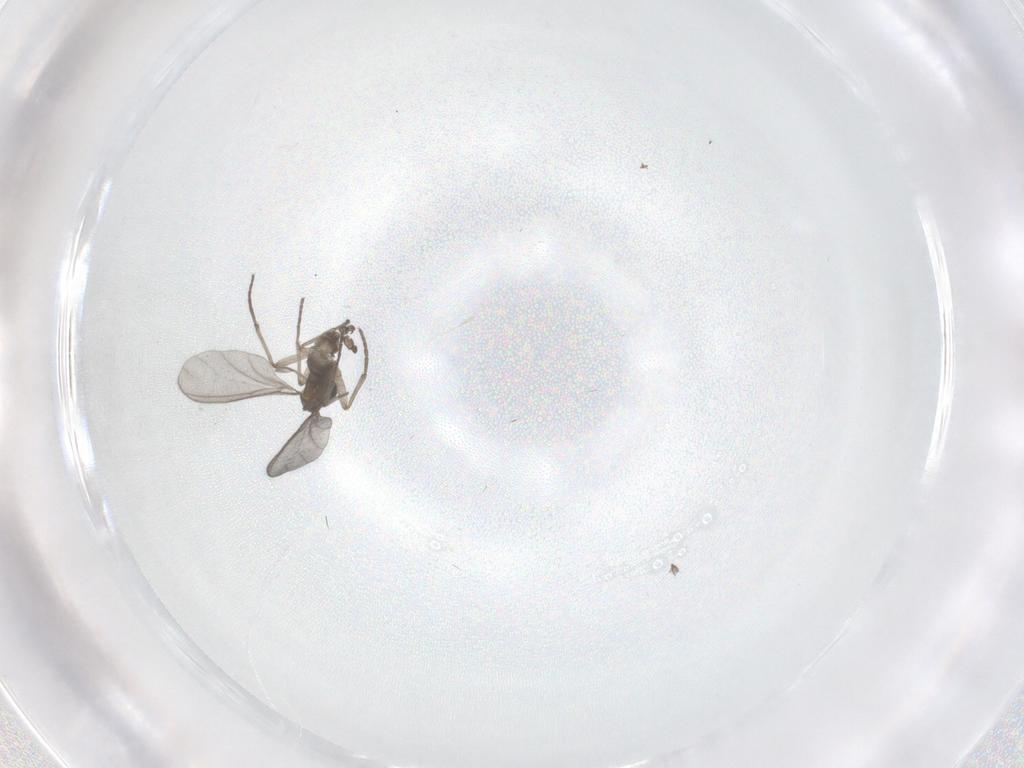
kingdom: Animalia
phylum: Arthropoda
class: Insecta
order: Diptera
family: Sciaridae
